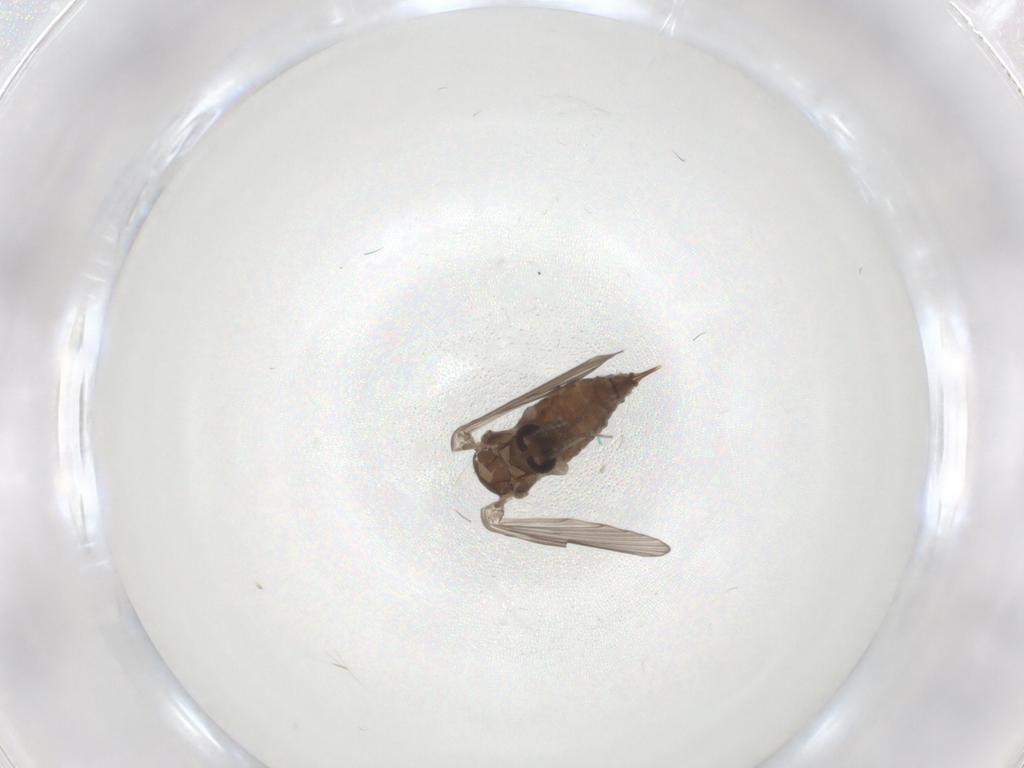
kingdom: Animalia
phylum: Arthropoda
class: Insecta
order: Diptera
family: Psychodidae
